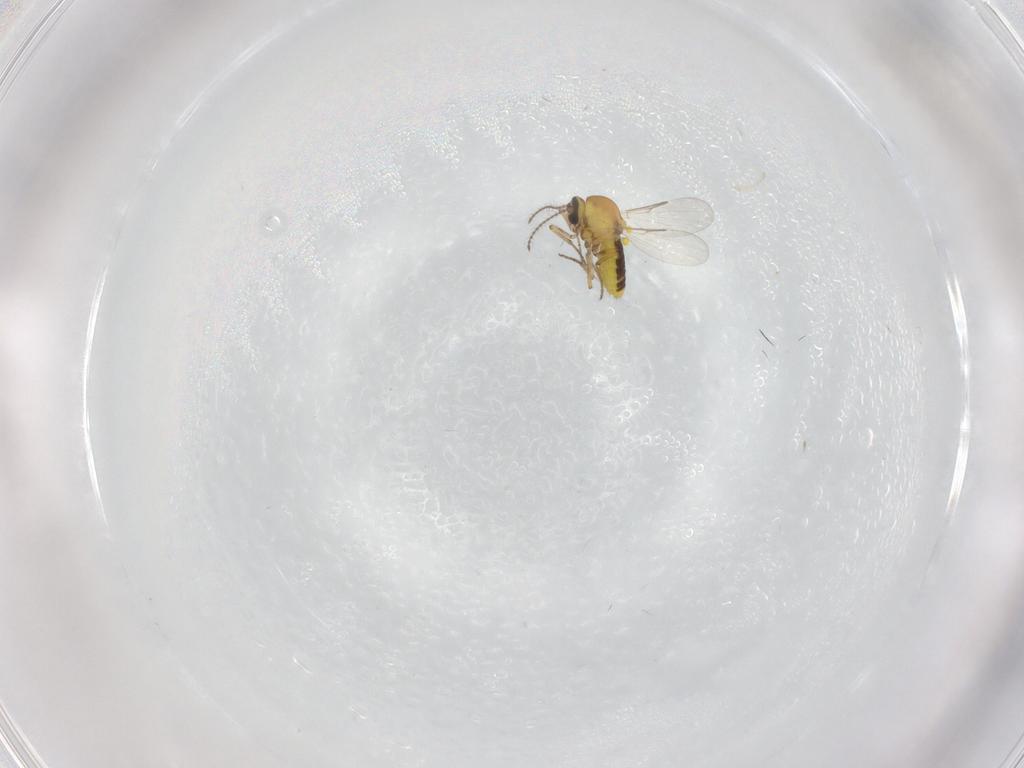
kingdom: Animalia
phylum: Arthropoda
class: Insecta
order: Diptera
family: Ceratopogonidae
